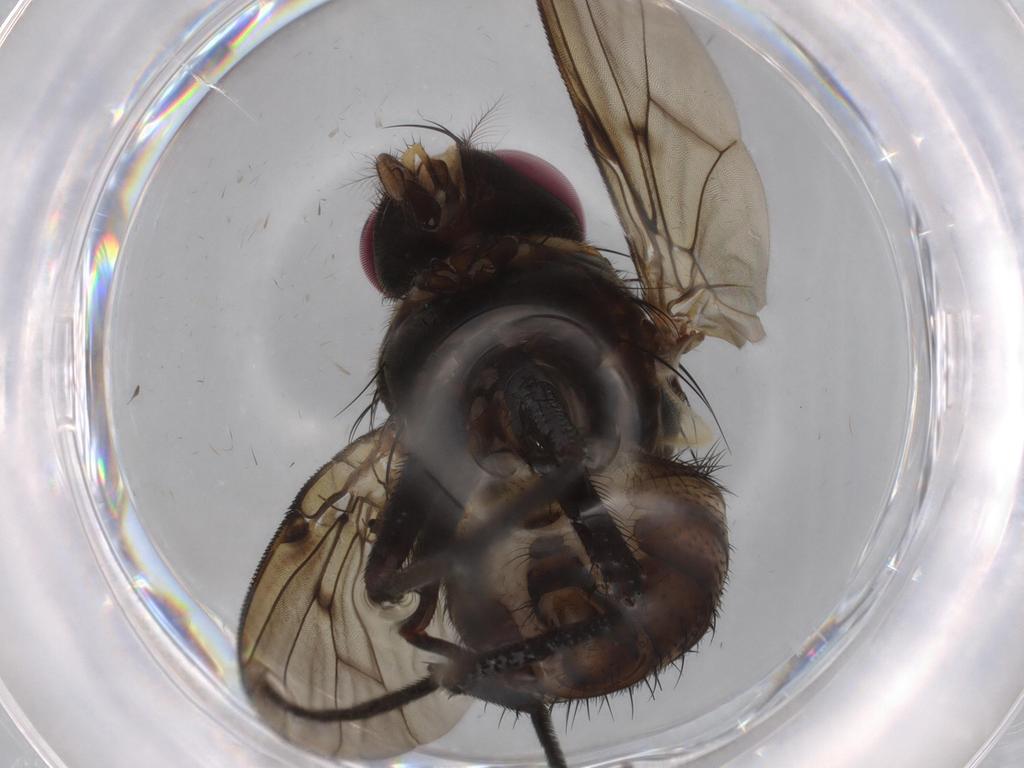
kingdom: Animalia
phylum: Arthropoda
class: Insecta
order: Diptera
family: Muscidae
